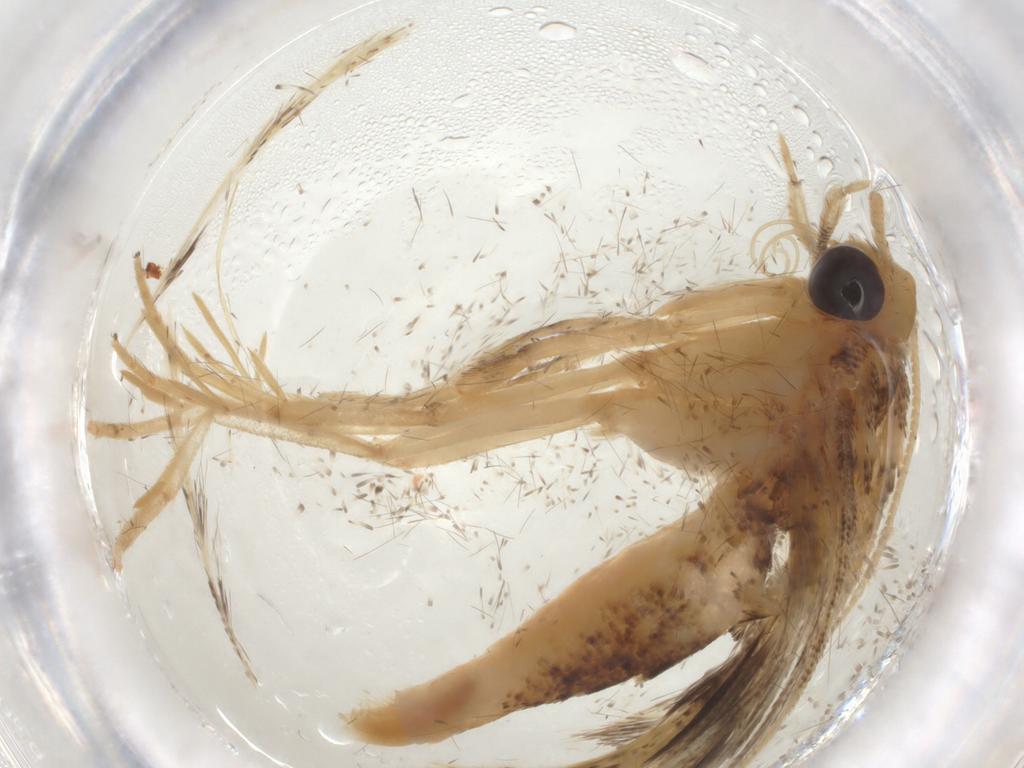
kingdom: Animalia
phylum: Arthropoda
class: Insecta
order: Lepidoptera
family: Gelechiidae
